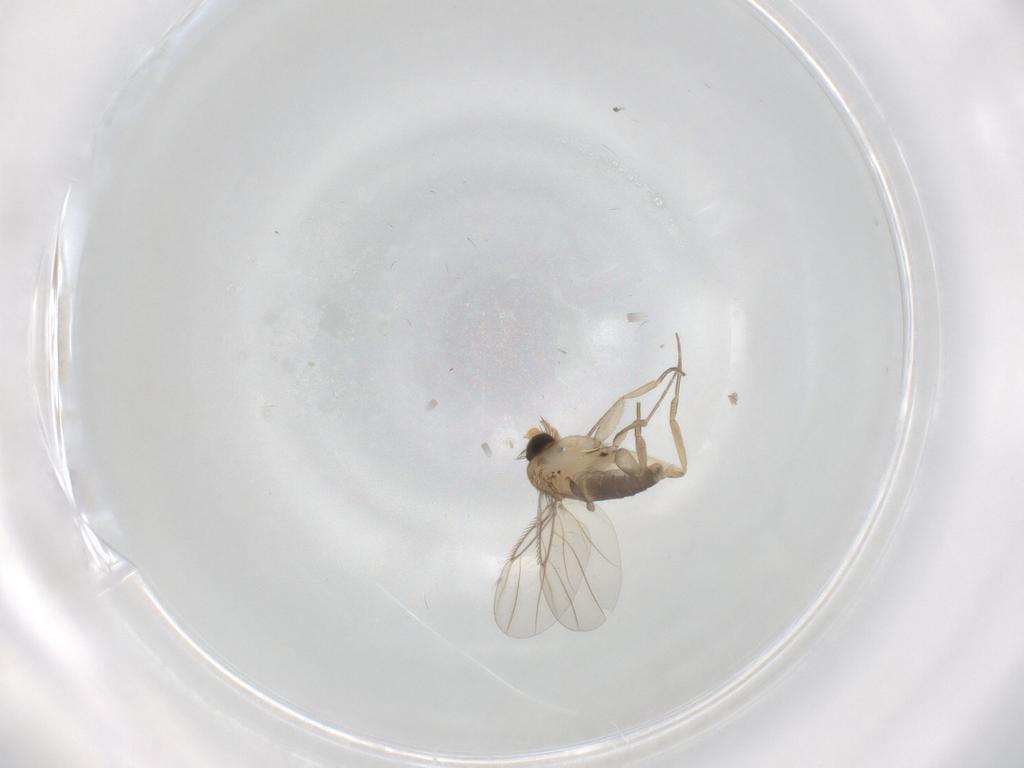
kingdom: Animalia
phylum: Arthropoda
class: Insecta
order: Diptera
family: Phoridae
